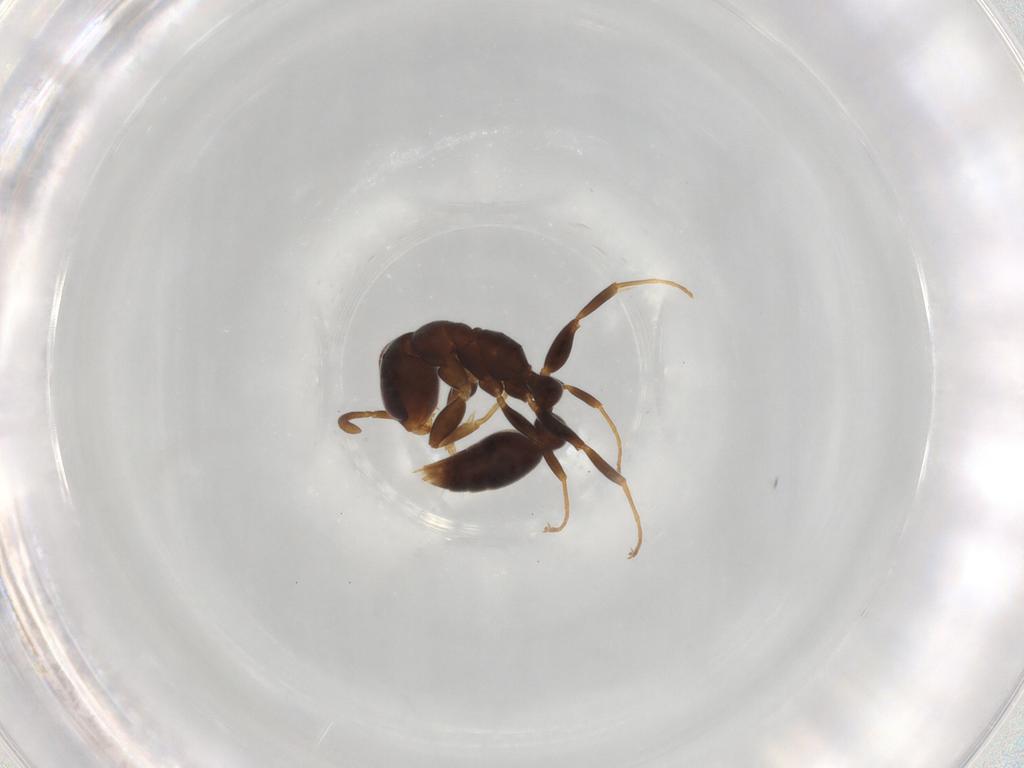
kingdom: Animalia
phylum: Arthropoda
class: Insecta
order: Hymenoptera
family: Formicidae
